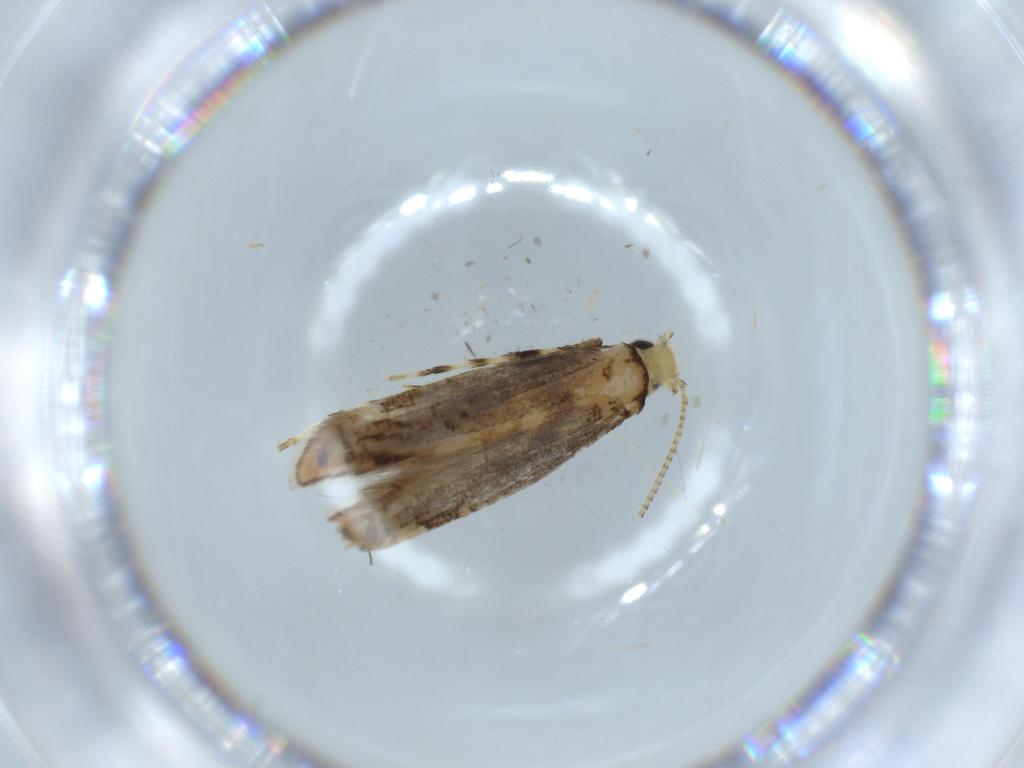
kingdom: Animalia
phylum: Arthropoda
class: Insecta
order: Lepidoptera
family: Gracillariidae
